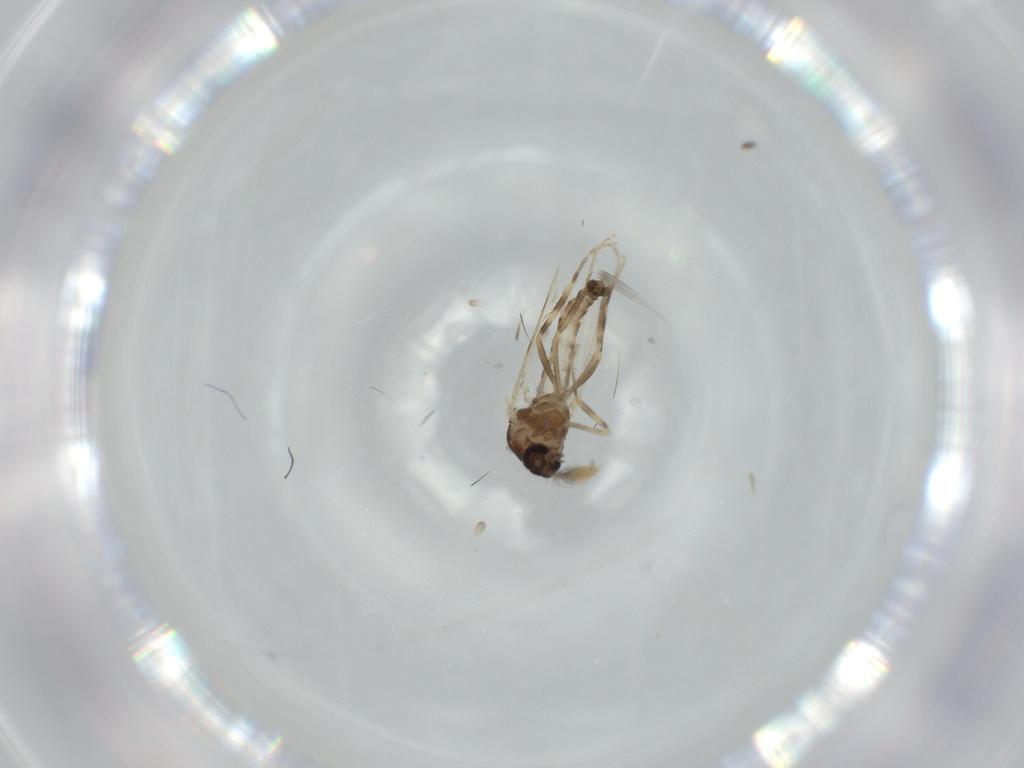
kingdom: Animalia
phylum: Arthropoda
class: Insecta
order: Diptera
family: Ceratopogonidae
